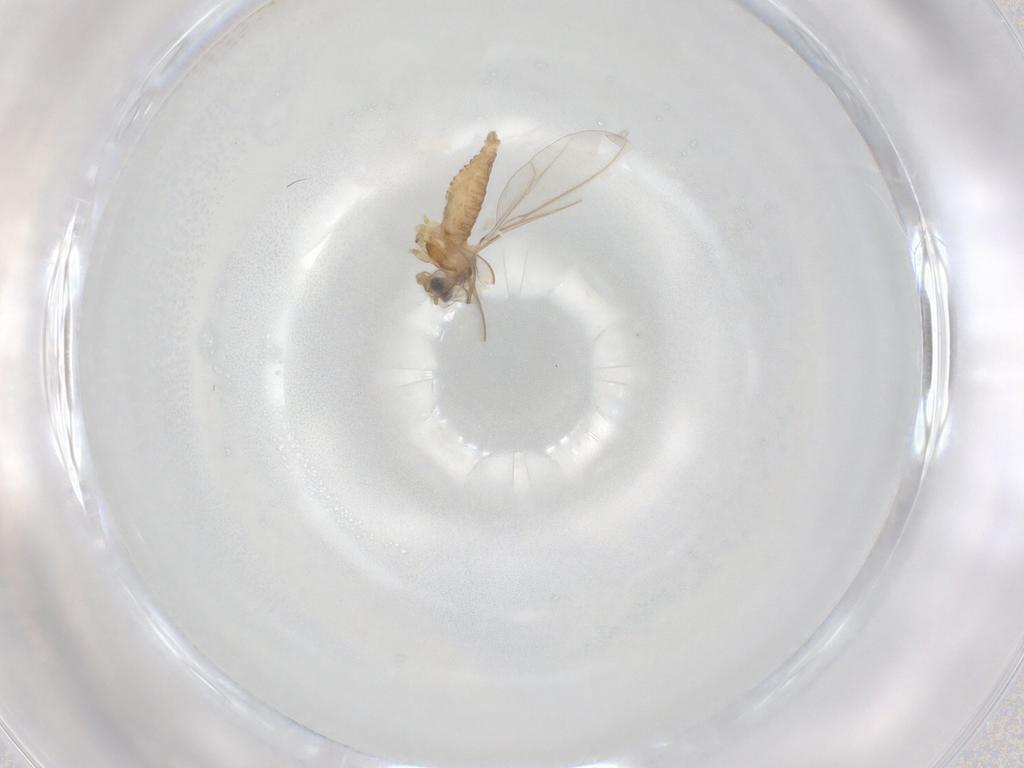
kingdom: Animalia
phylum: Arthropoda
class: Insecta
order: Diptera
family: Cecidomyiidae
